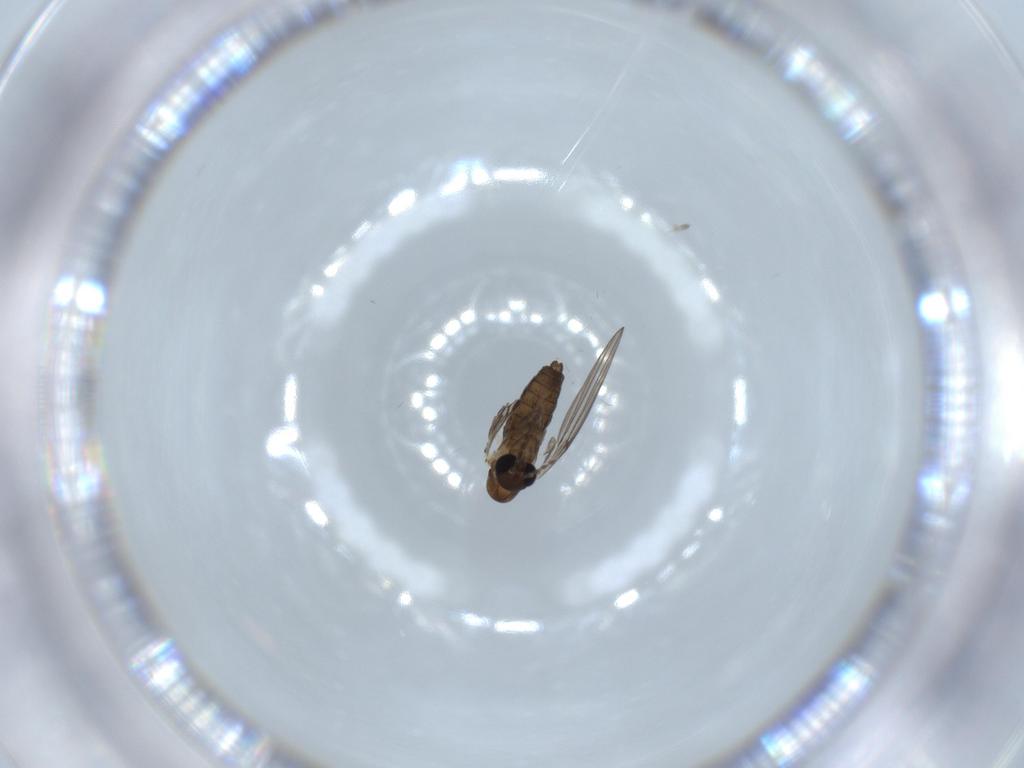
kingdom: Animalia
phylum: Arthropoda
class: Insecta
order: Diptera
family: Psychodidae
